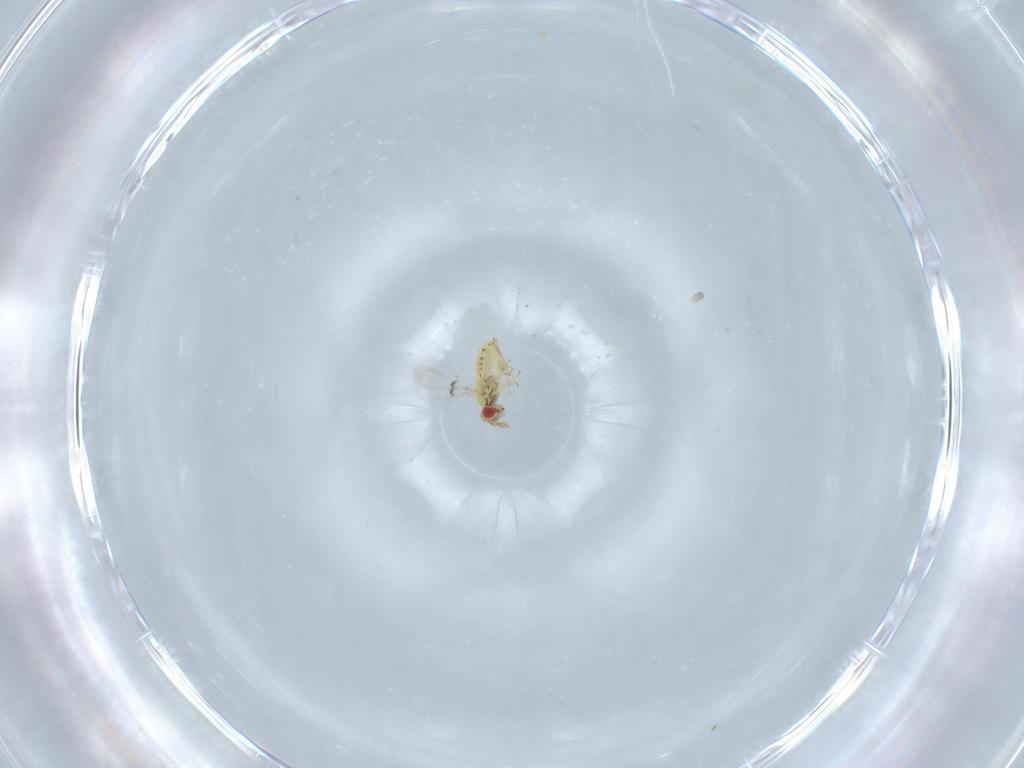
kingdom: Animalia
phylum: Arthropoda
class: Insecta
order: Hymenoptera
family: Trichogrammatidae
